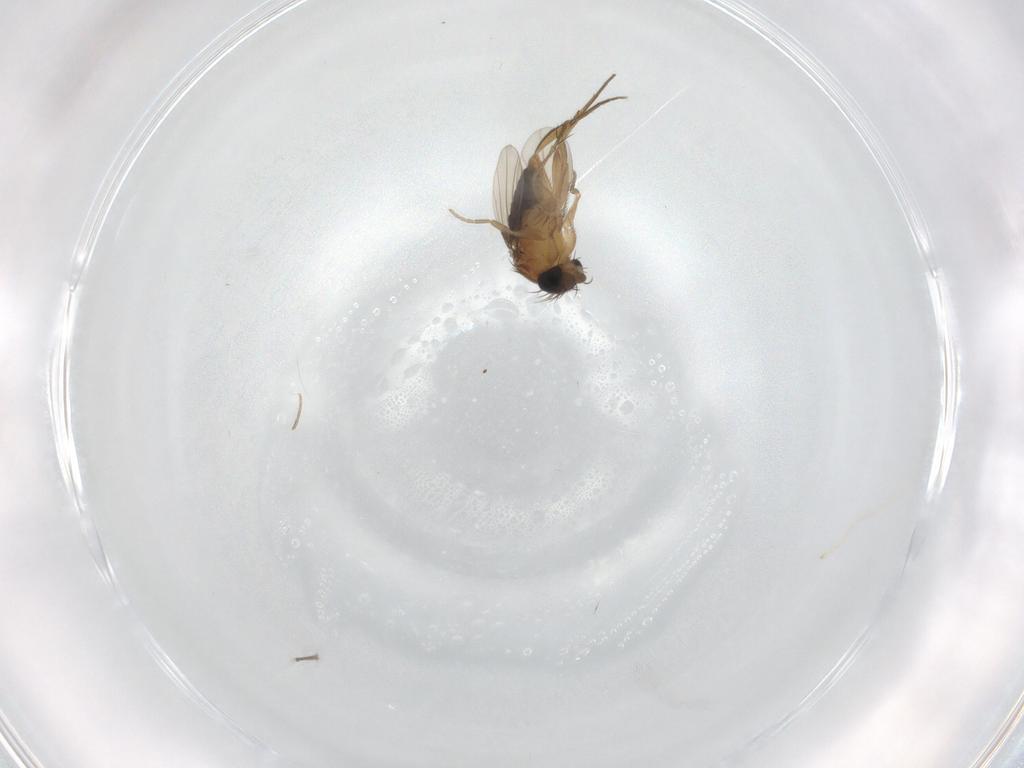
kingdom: Animalia
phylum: Arthropoda
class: Insecta
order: Diptera
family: Phoridae
